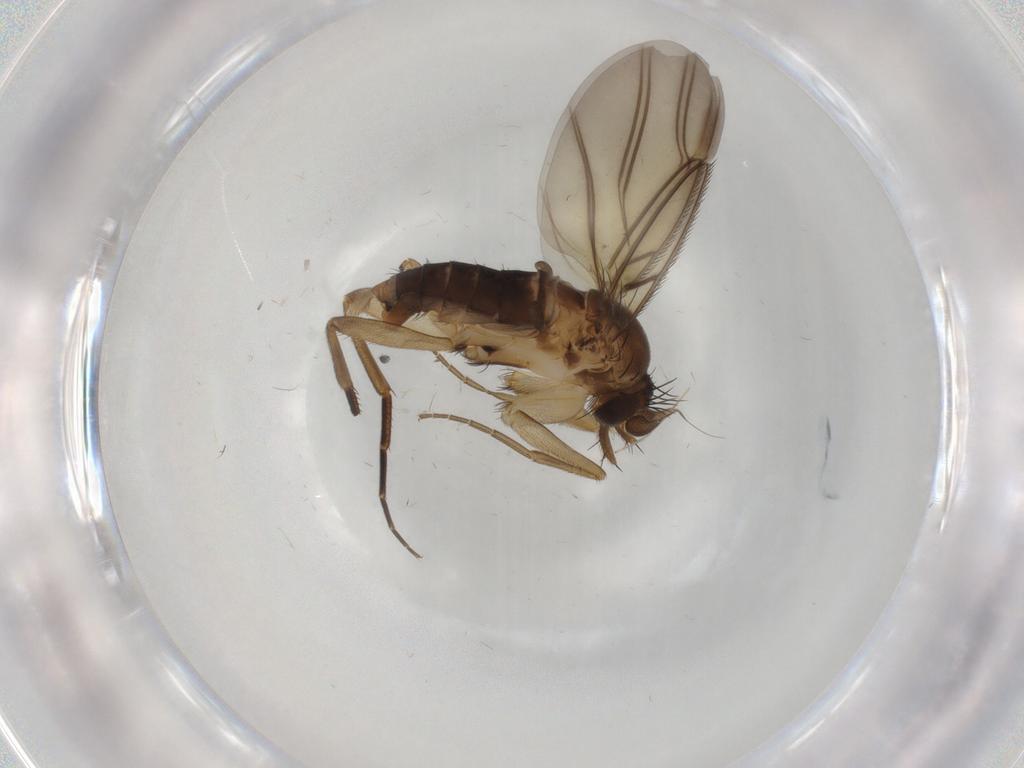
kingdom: Animalia
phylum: Arthropoda
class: Insecta
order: Diptera
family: Phoridae
